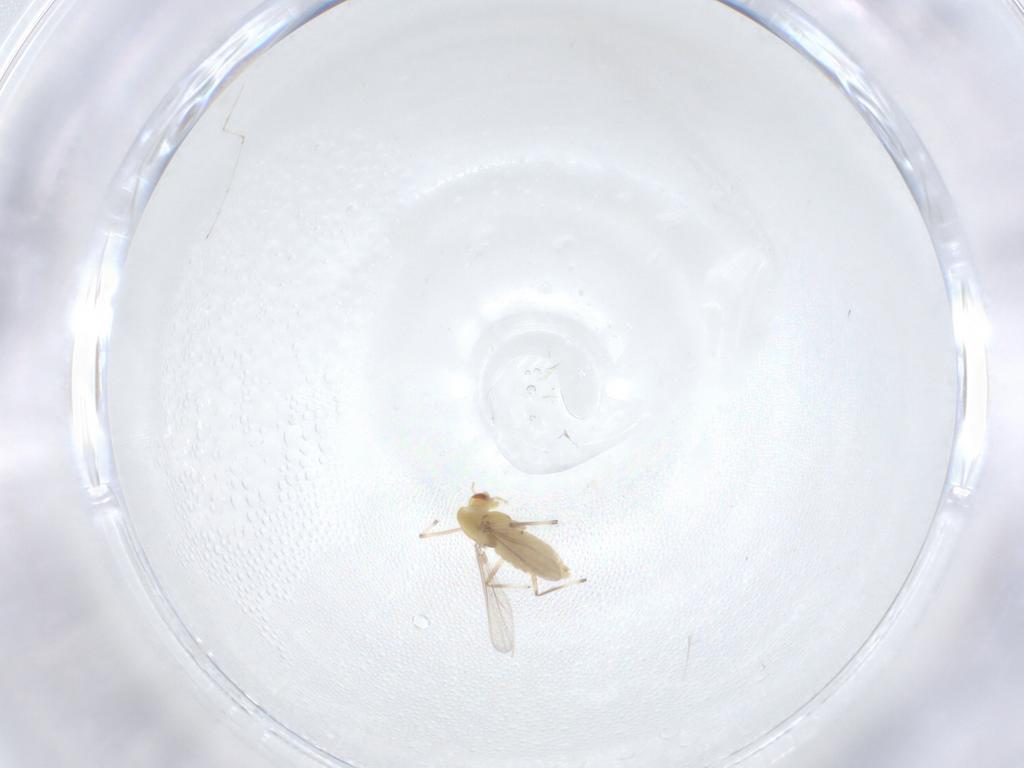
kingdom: Animalia
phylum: Arthropoda
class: Insecta
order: Diptera
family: Chironomidae
